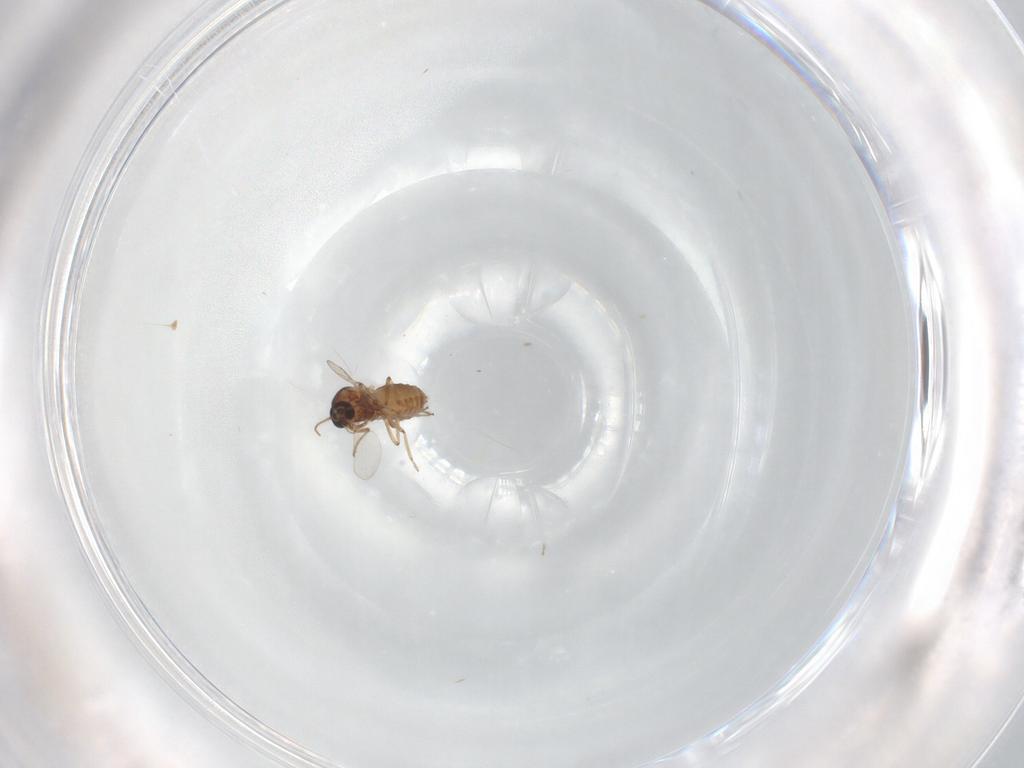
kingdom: Animalia
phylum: Arthropoda
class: Insecta
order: Diptera
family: Ceratopogonidae
